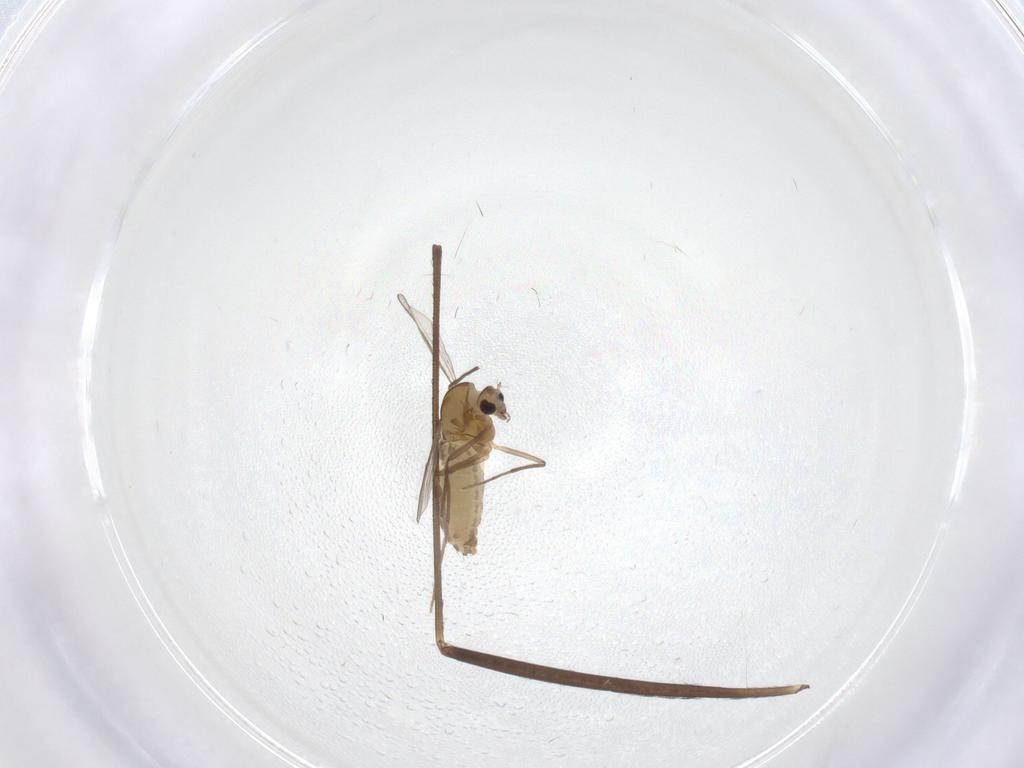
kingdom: Animalia
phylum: Arthropoda
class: Insecta
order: Diptera
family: Chironomidae
